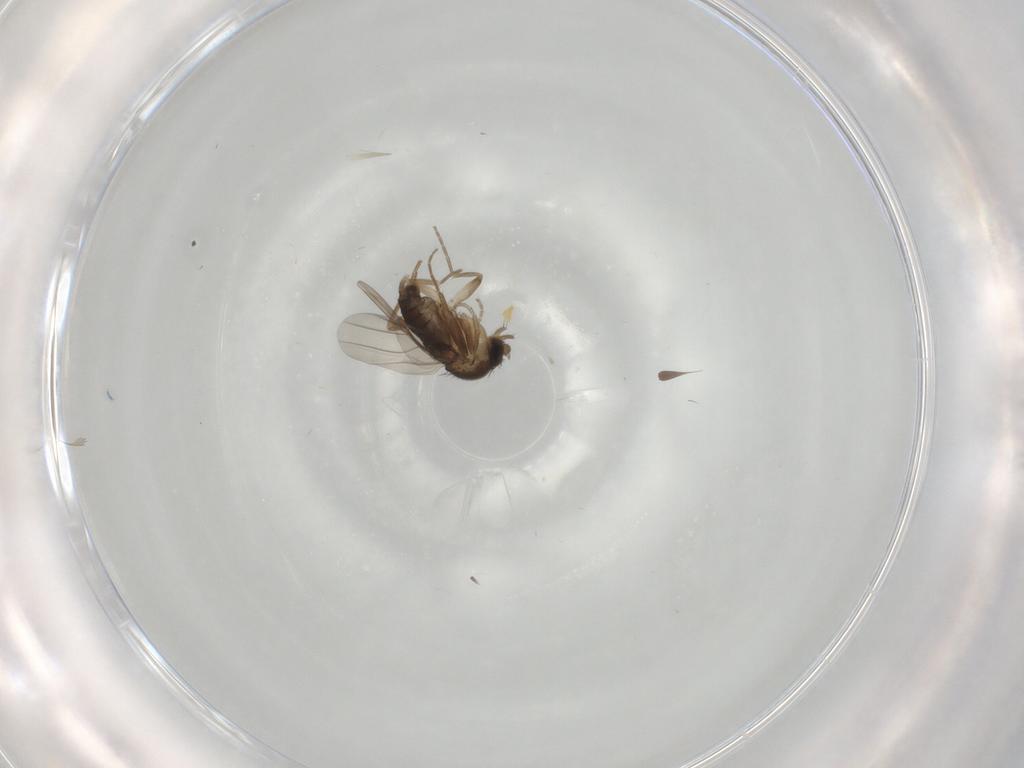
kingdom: Animalia
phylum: Arthropoda
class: Insecta
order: Diptera
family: Phoridae
